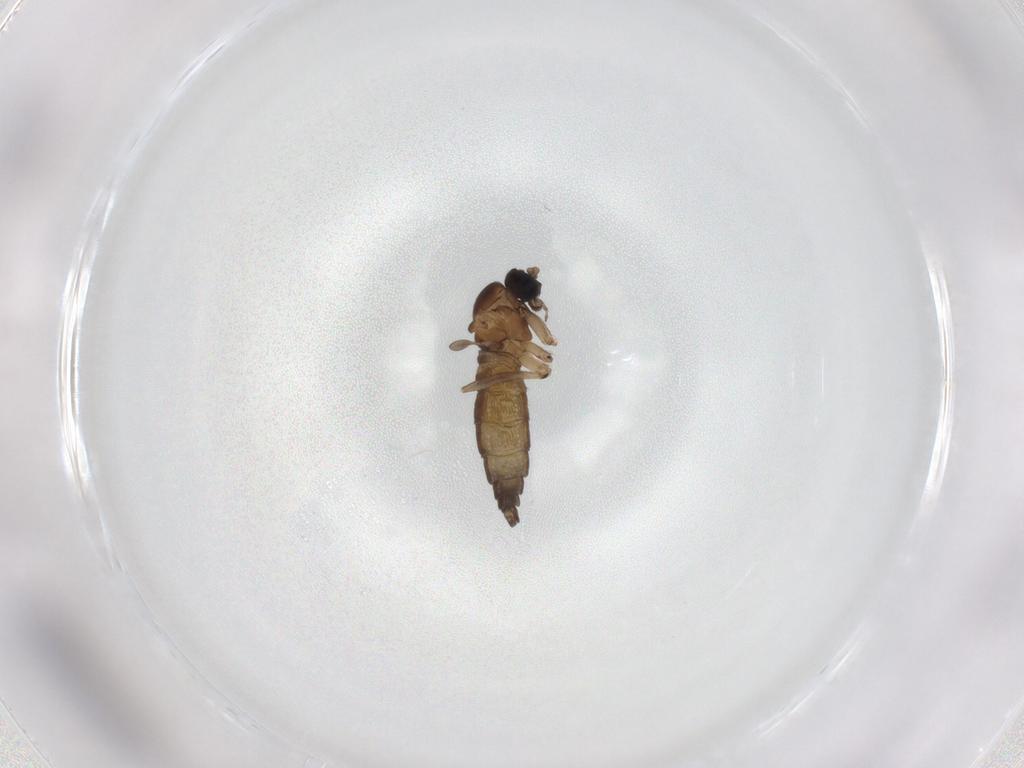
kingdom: Animalia
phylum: Arthropoda
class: Insecta
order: Diptera
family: Sciaridae
